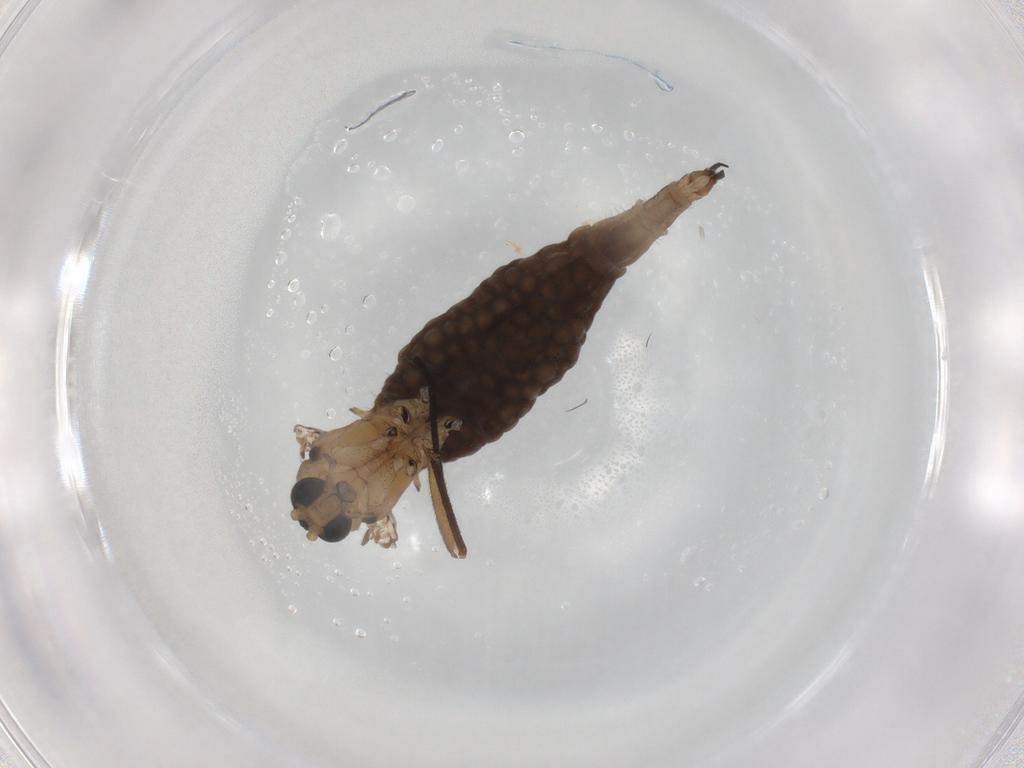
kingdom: Animalia
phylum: Arthropoda
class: Insecta
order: Diptera
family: Sciaridae
